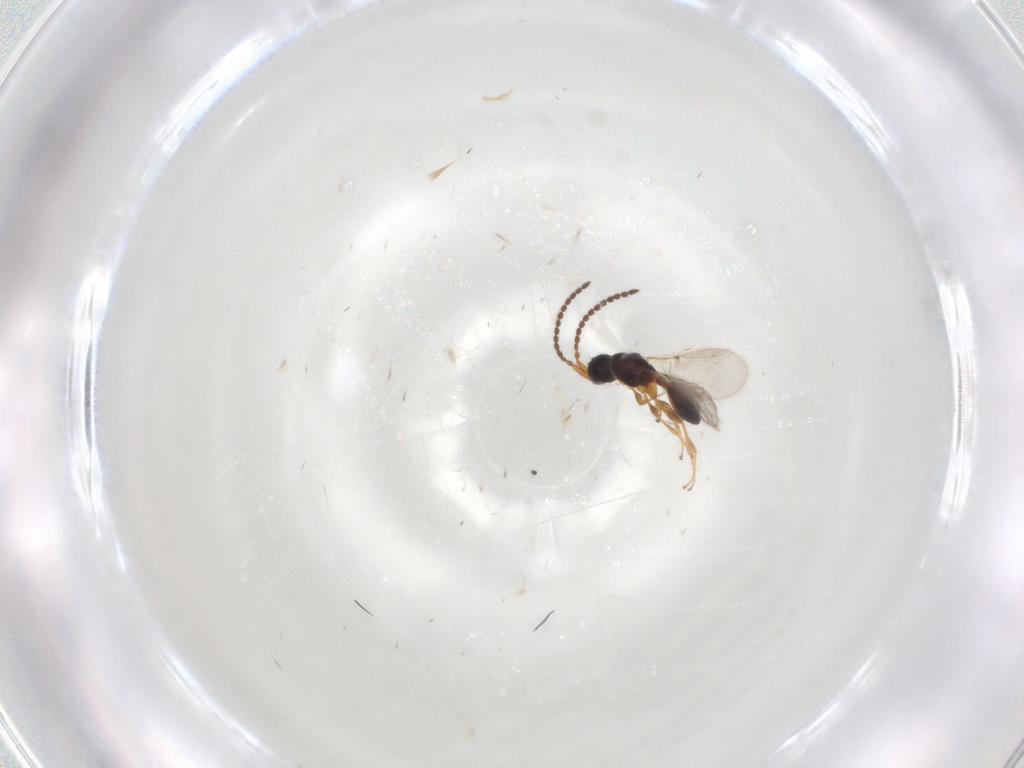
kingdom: Animalia
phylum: Arthropoda
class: Insecta
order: Hymenoptera
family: Diapriidae
